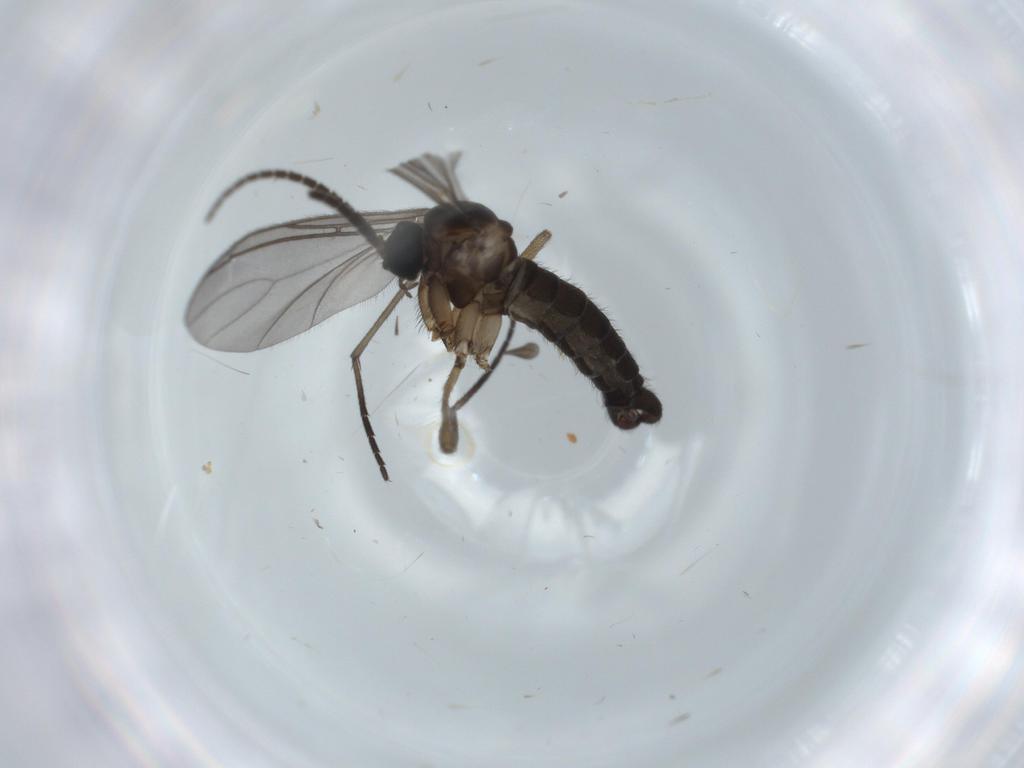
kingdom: Animalia
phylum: Arthropoda
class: Insecta
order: Diptera
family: Sciaridae
